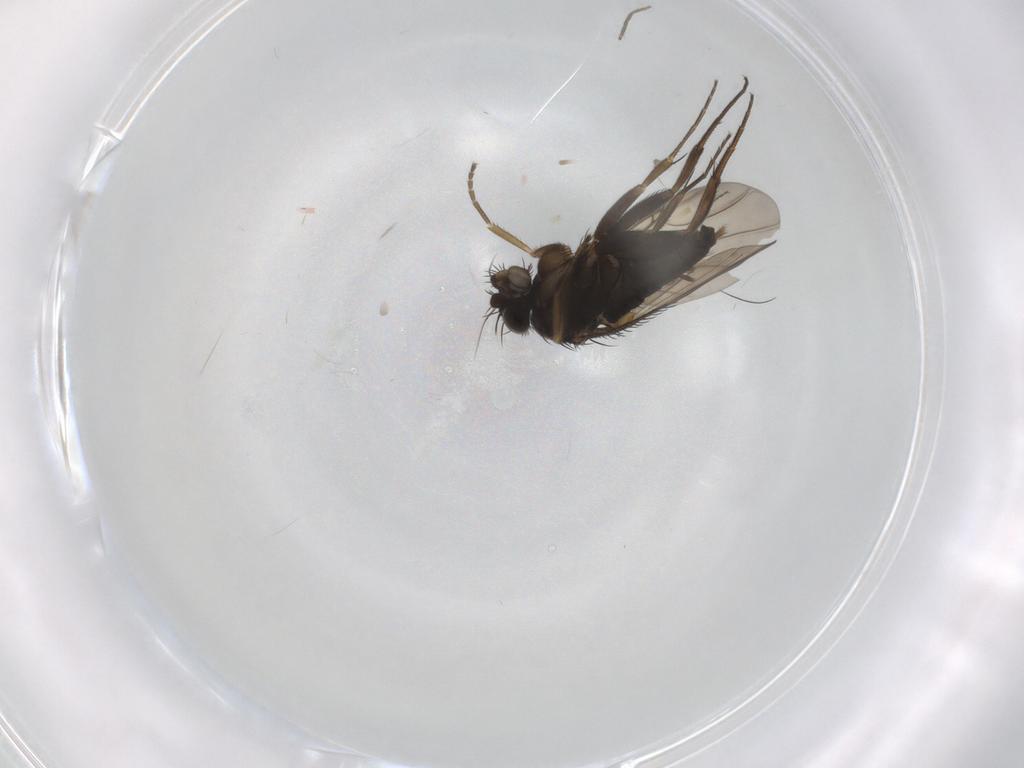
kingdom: Animalia
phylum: Arthropoda
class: Insecta
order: Diptera
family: Phoridae
